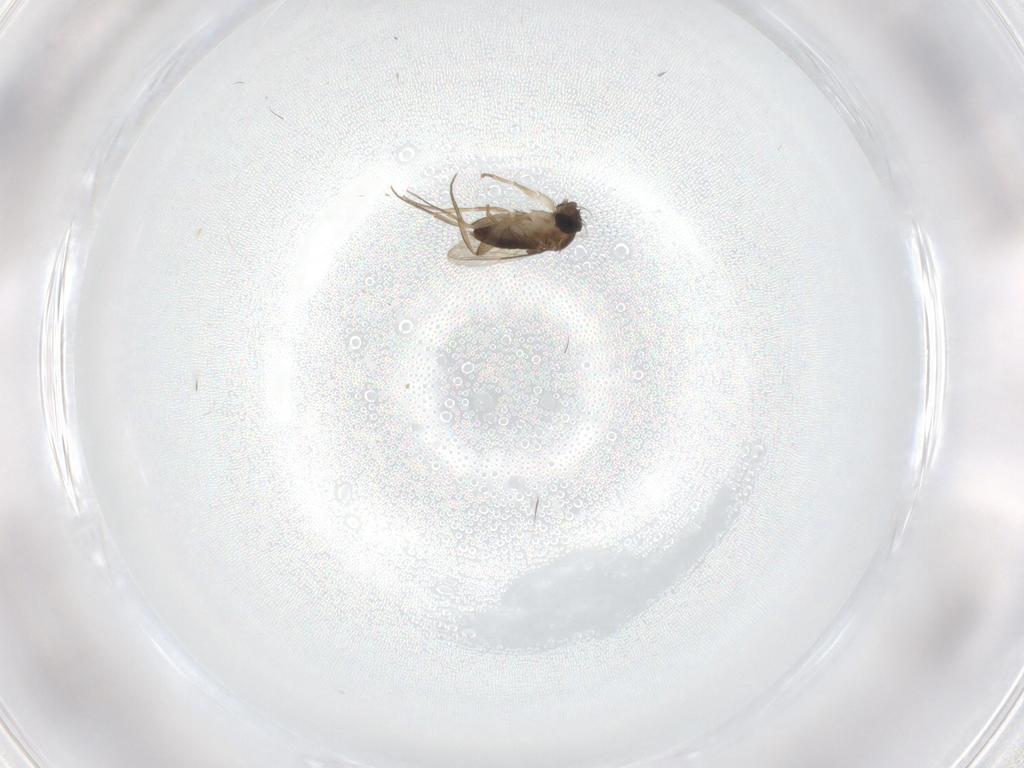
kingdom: Animalia
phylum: Arthropoda
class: Insecta
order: Diptera
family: Phoridae
